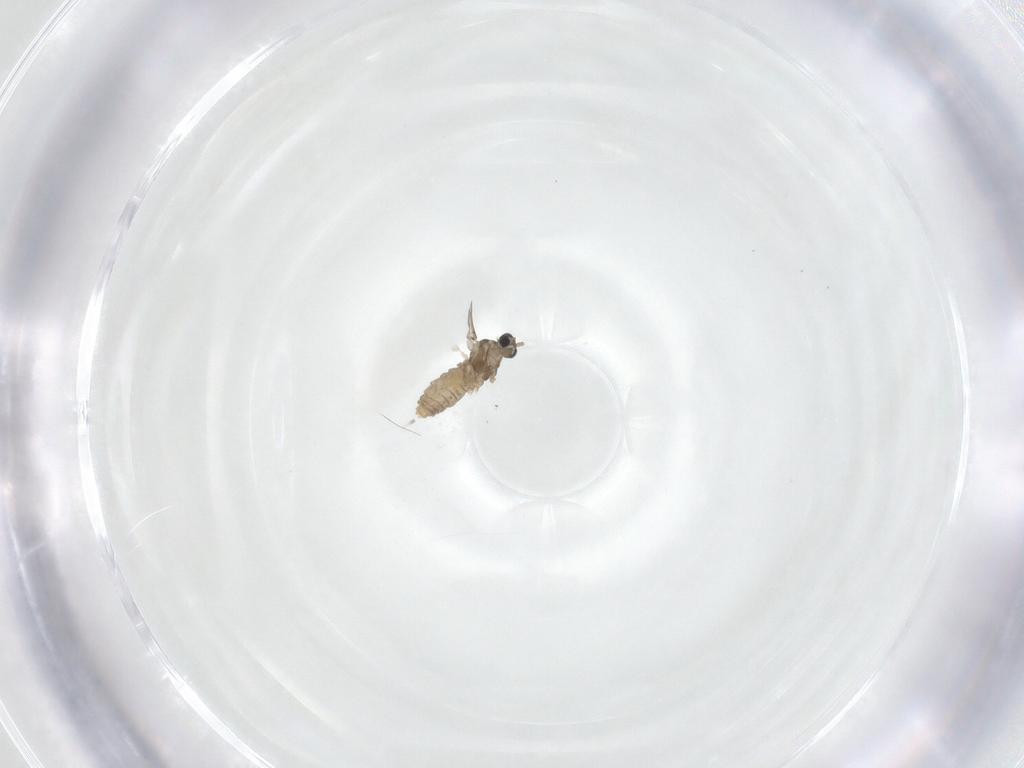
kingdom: Animalia
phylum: Arthropoda
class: Insecta
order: Diptera
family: Cecidomyiidae
